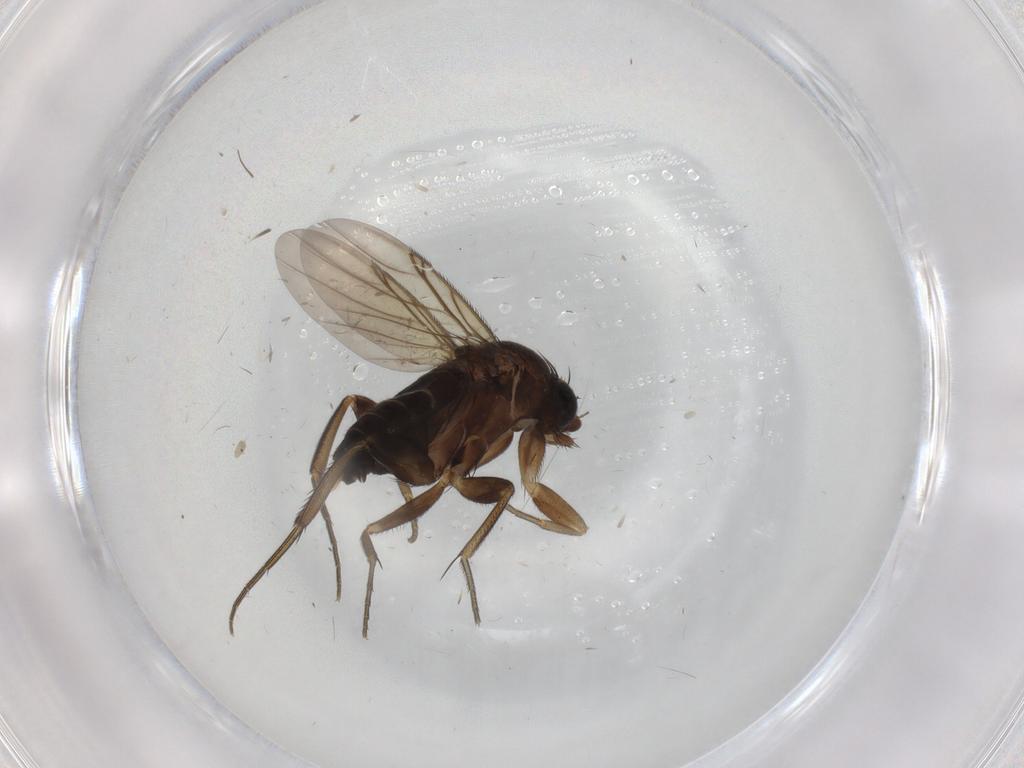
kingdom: Animalia
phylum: Arthropoda
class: Insecta
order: Diptera
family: Phoridae
